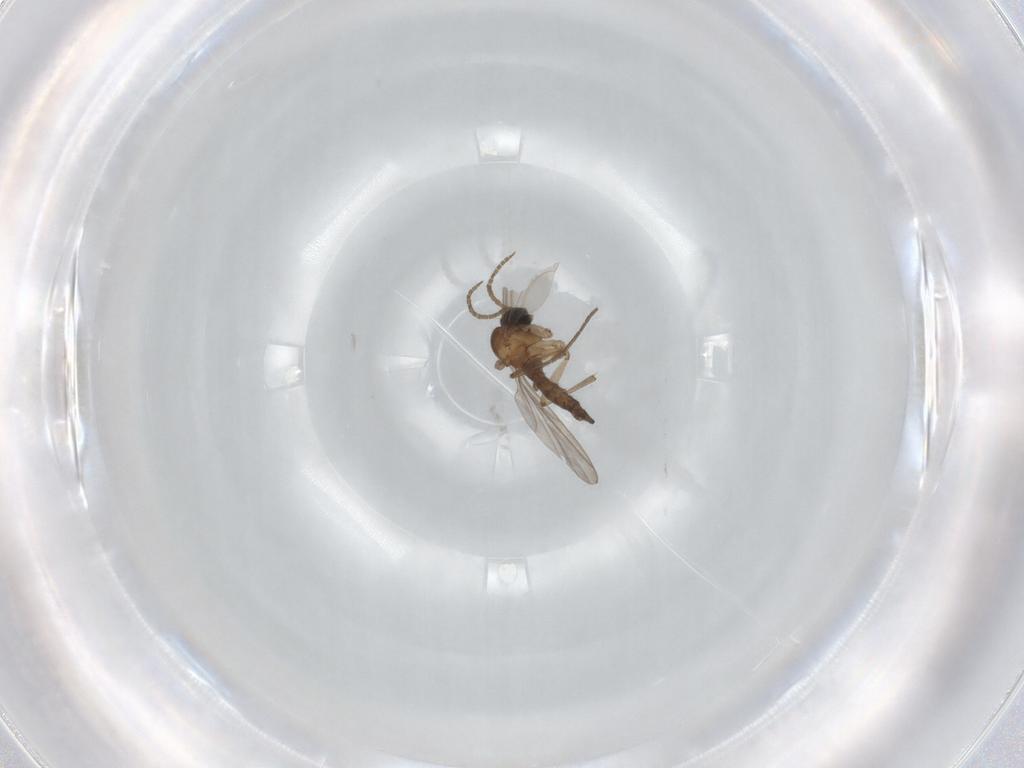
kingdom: Animalia
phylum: Arthropoda
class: Insecta
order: Diptera
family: Sciaridae
